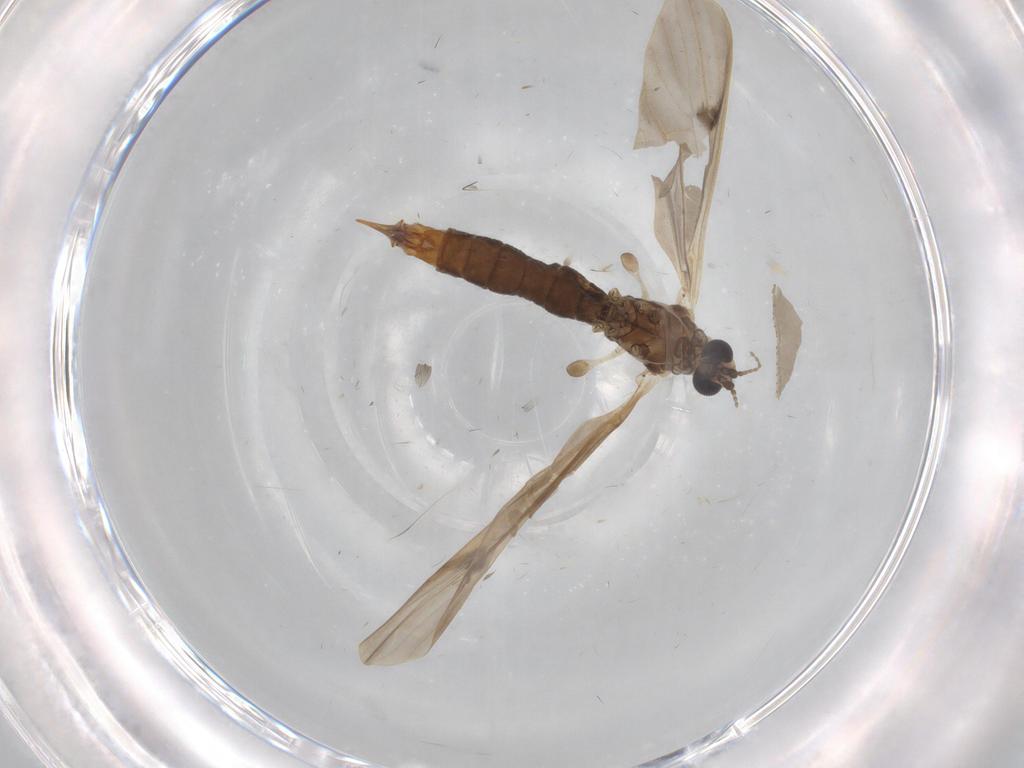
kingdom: Animalia
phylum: Arthropoda
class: Insecta
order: Diptera
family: Limoniidae
